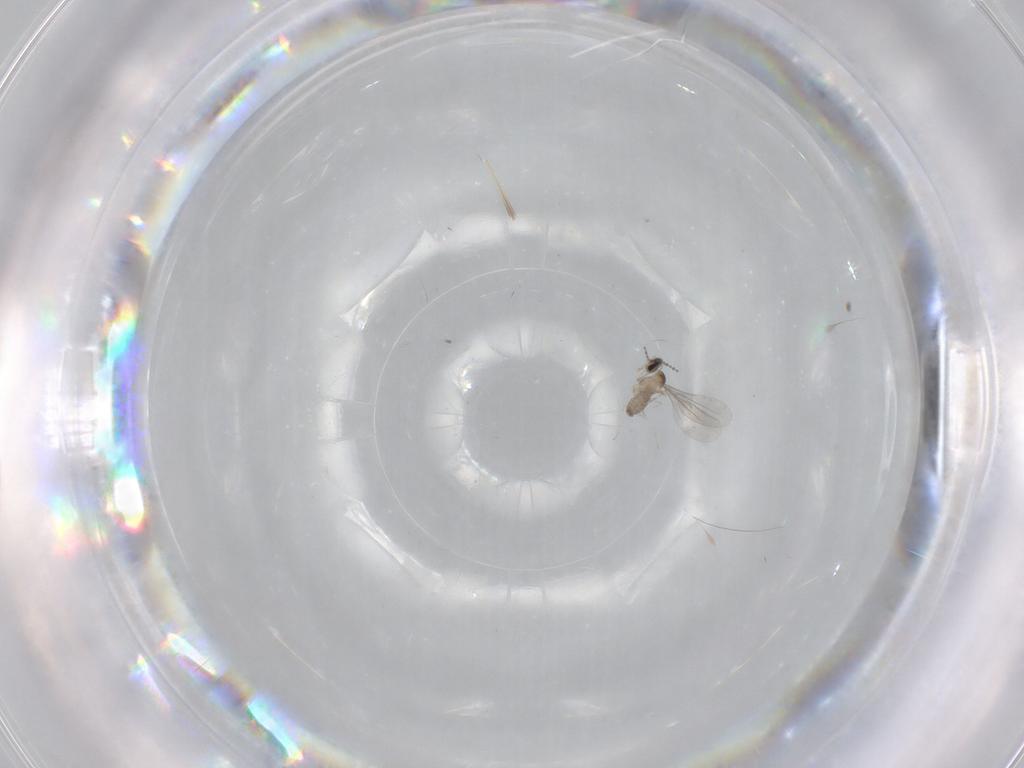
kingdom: Animalia
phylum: Arthropoda
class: Insecta
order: Diptera
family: Cecidomyiidae
